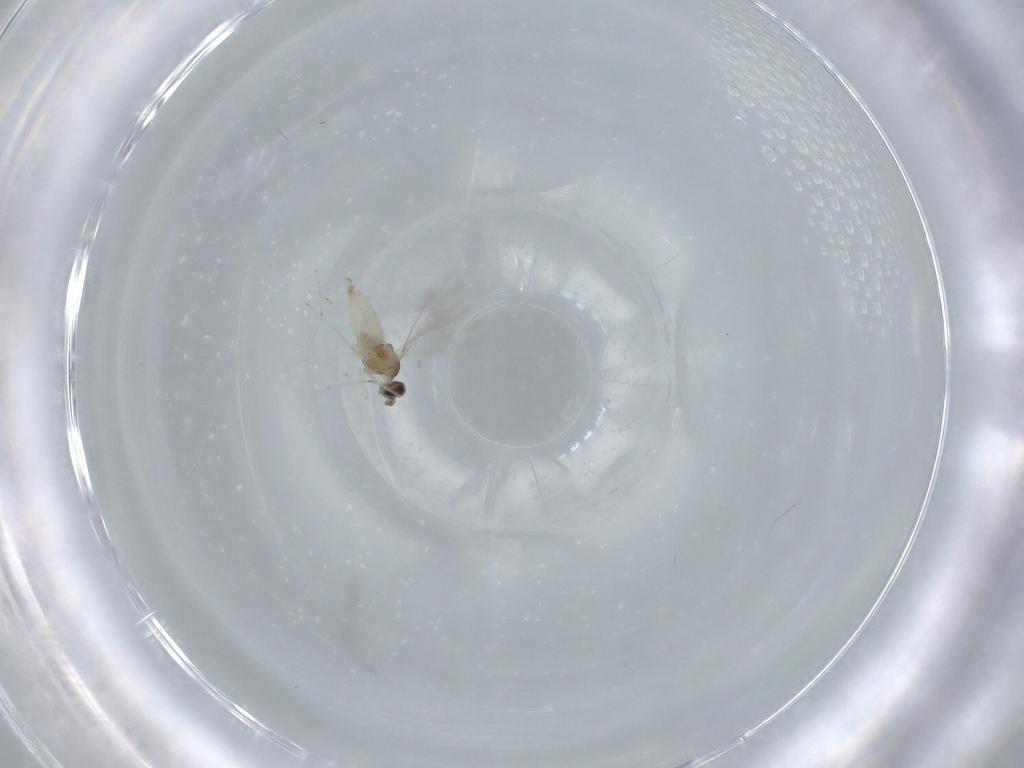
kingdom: Animalia
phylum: Arthropoda
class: Insecta
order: Diptera
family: Cecidomyiidae
